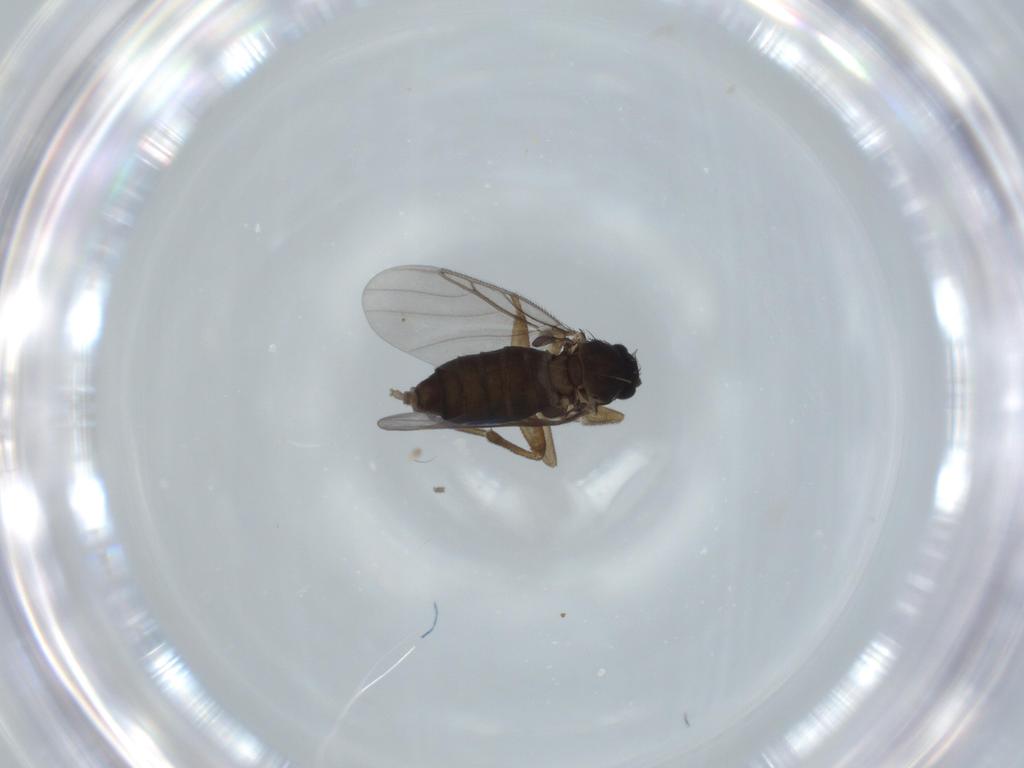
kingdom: Animalia
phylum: Arthropoda
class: Insecta
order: Diptera
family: Phoridae
